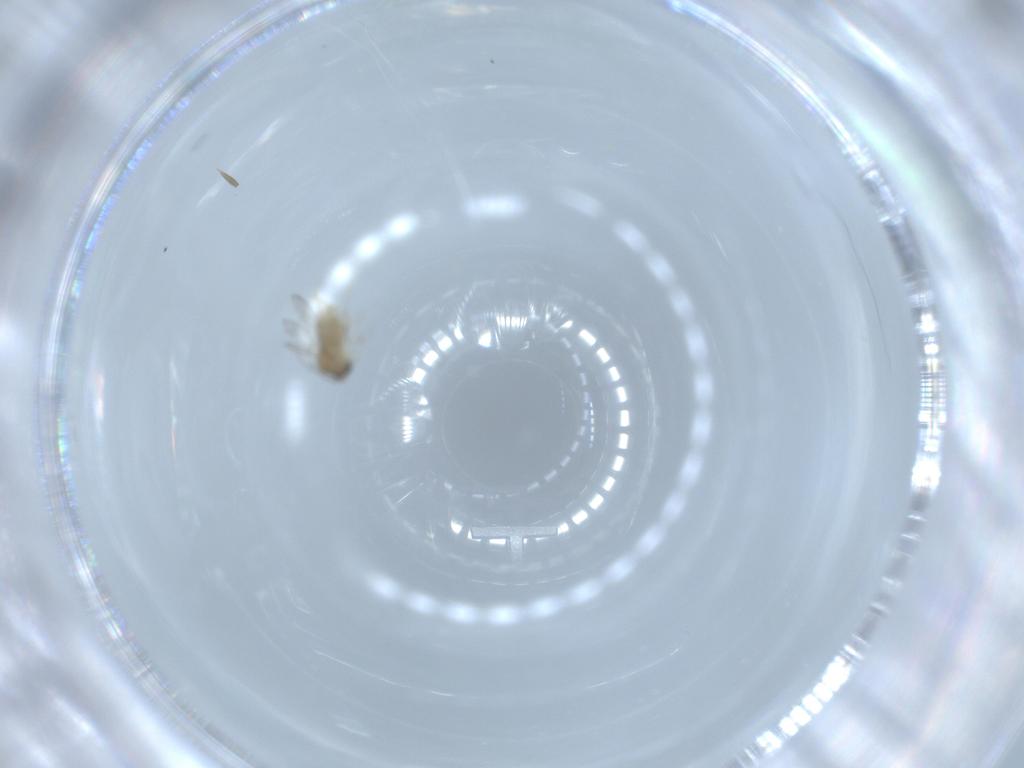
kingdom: Animalia
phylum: Arthropoda
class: Insecta
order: Diptera
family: Cecidomyiidae
